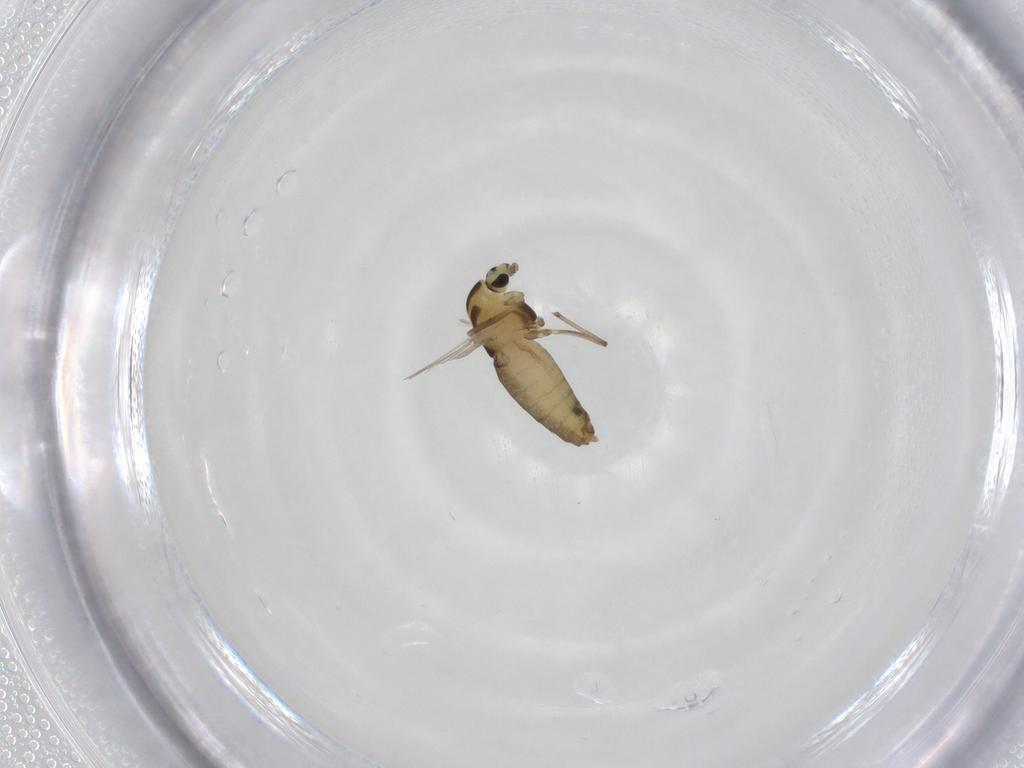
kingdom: Animalia
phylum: Arthropoda
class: Insecta
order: Diptera
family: Chironomidae
